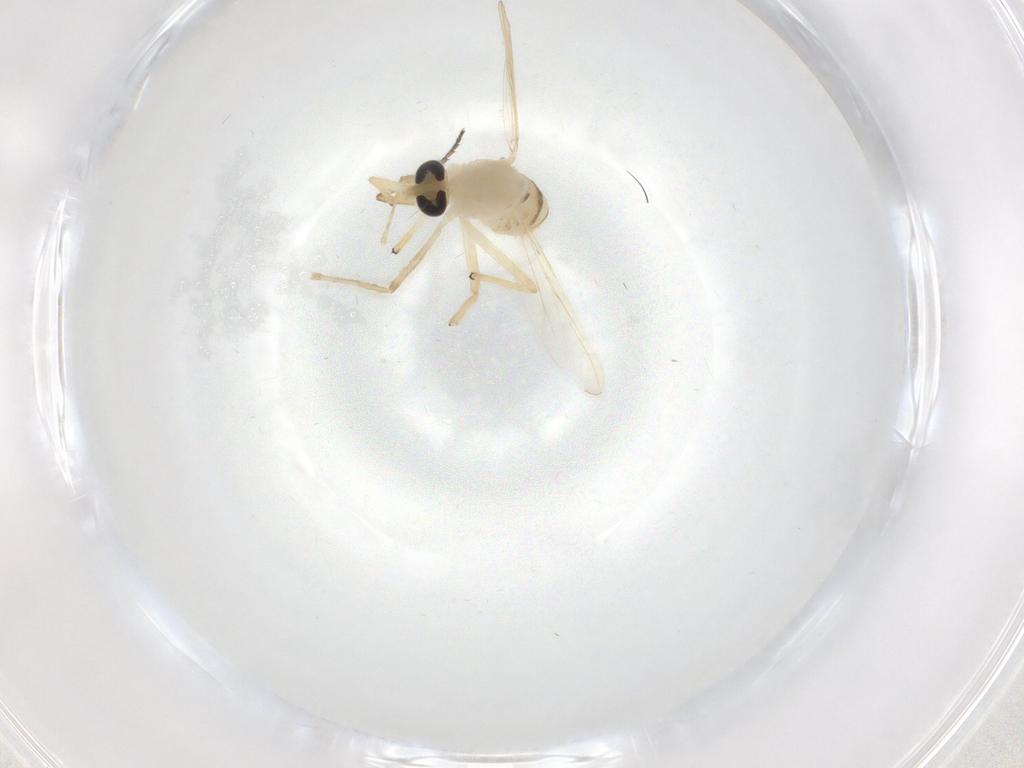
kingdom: Animalia
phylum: Arthropoda
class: Insecta
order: Diptera
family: Chironomidae
